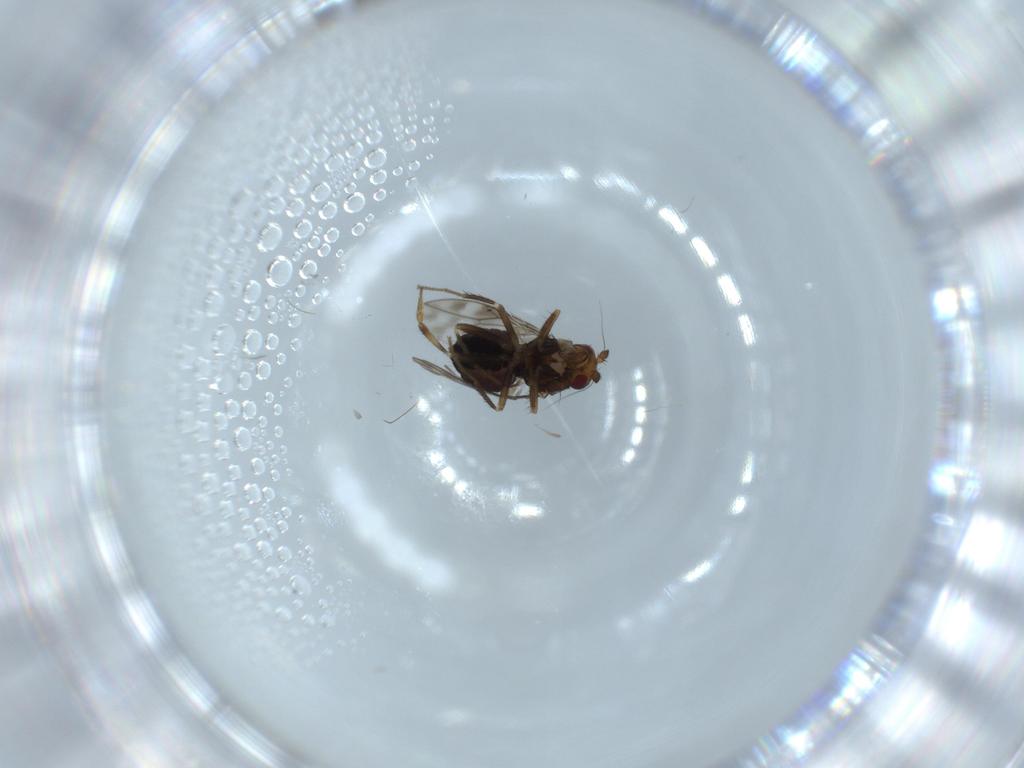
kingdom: Animalia
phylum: Arthropoda
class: Insecta
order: Diptera
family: Sphaeroceridae
